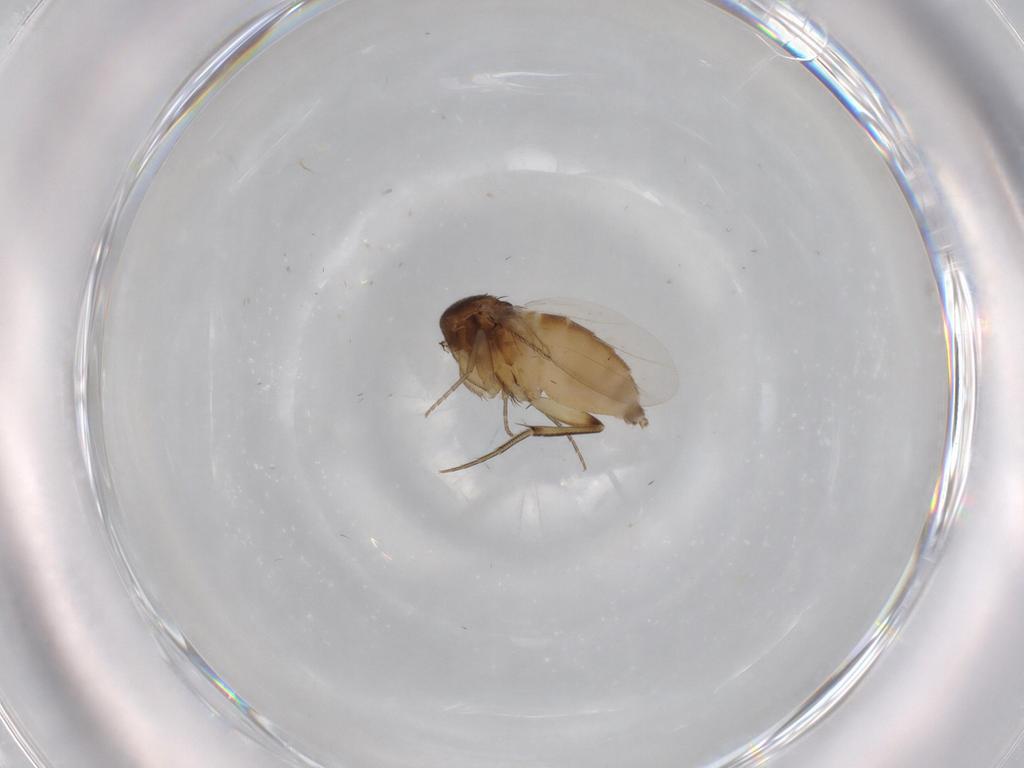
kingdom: Animalia
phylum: Arthropoda
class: Insecta
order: Diptera
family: Phoridae
